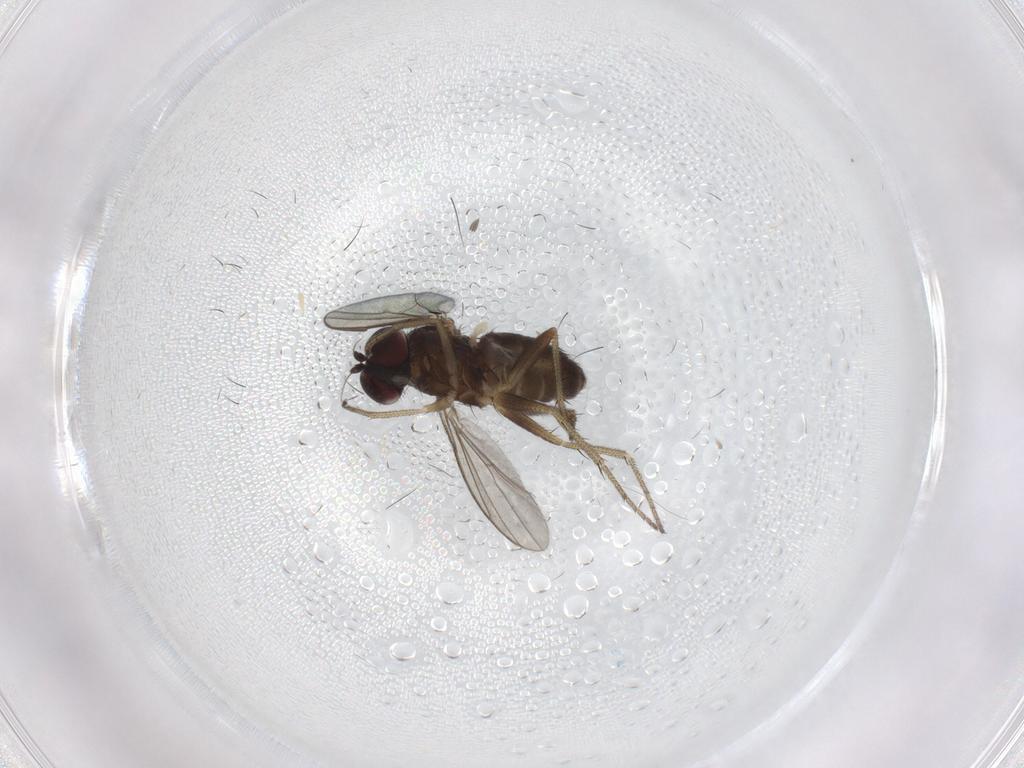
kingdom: Animalia
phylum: Arthropoda
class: Insecta
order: Diptera
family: Dolichopodidae
